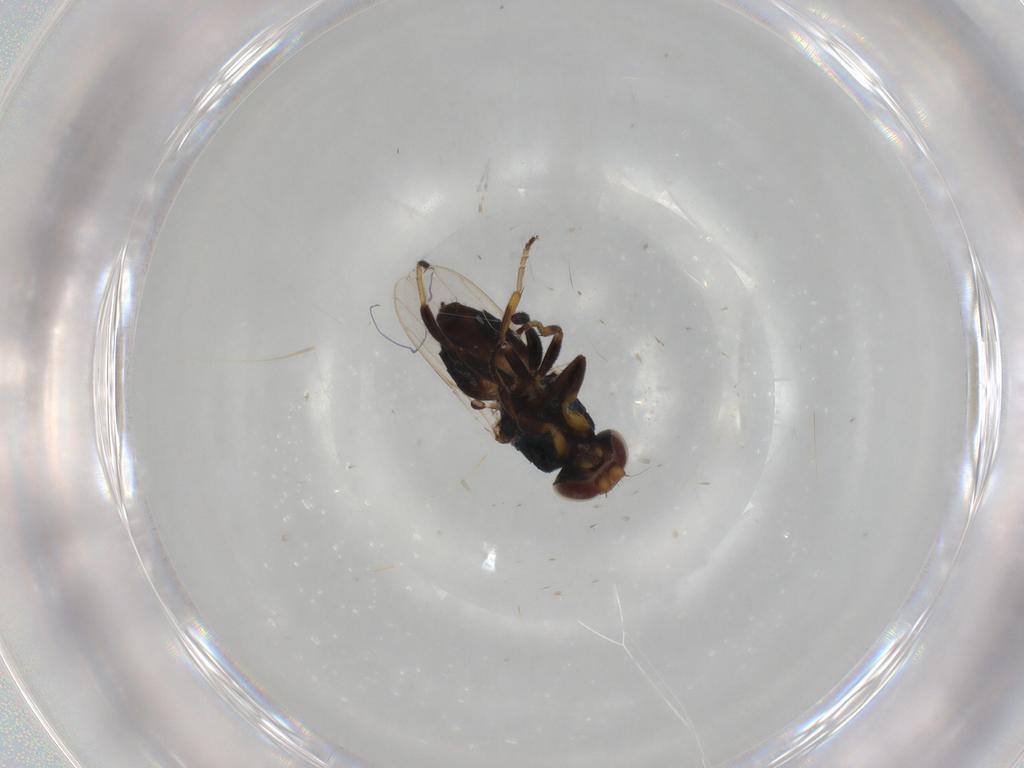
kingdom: Animalia
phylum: Arthropoda
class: Insecta
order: Diptera
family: Chloropidae
